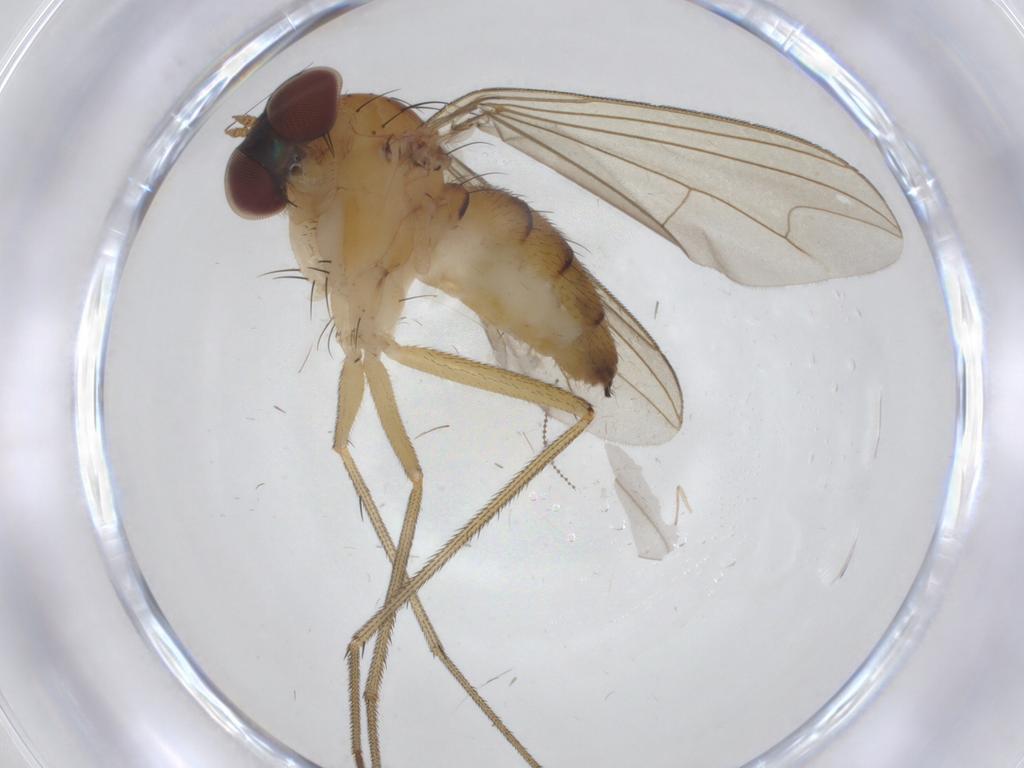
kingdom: Animalia
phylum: Arthropoda
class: Insecta
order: Diptera
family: Dolichopodidae
